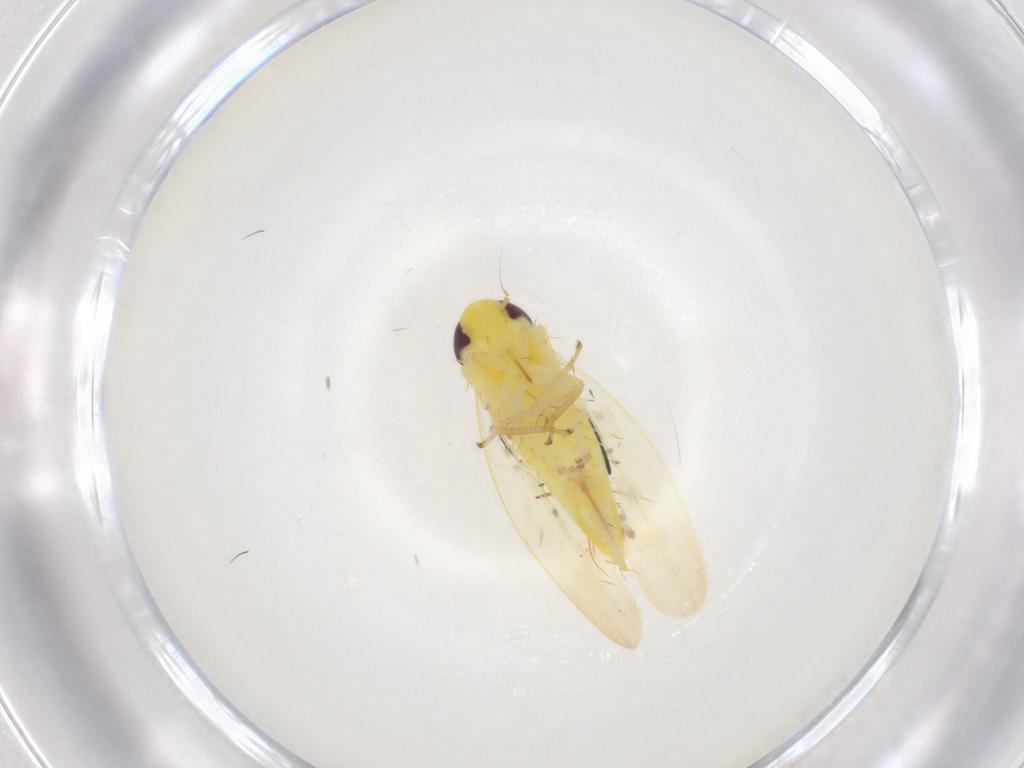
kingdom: Animalia
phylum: Arthropoda
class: Insecta
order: Hemiptera
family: Cicadellidae
